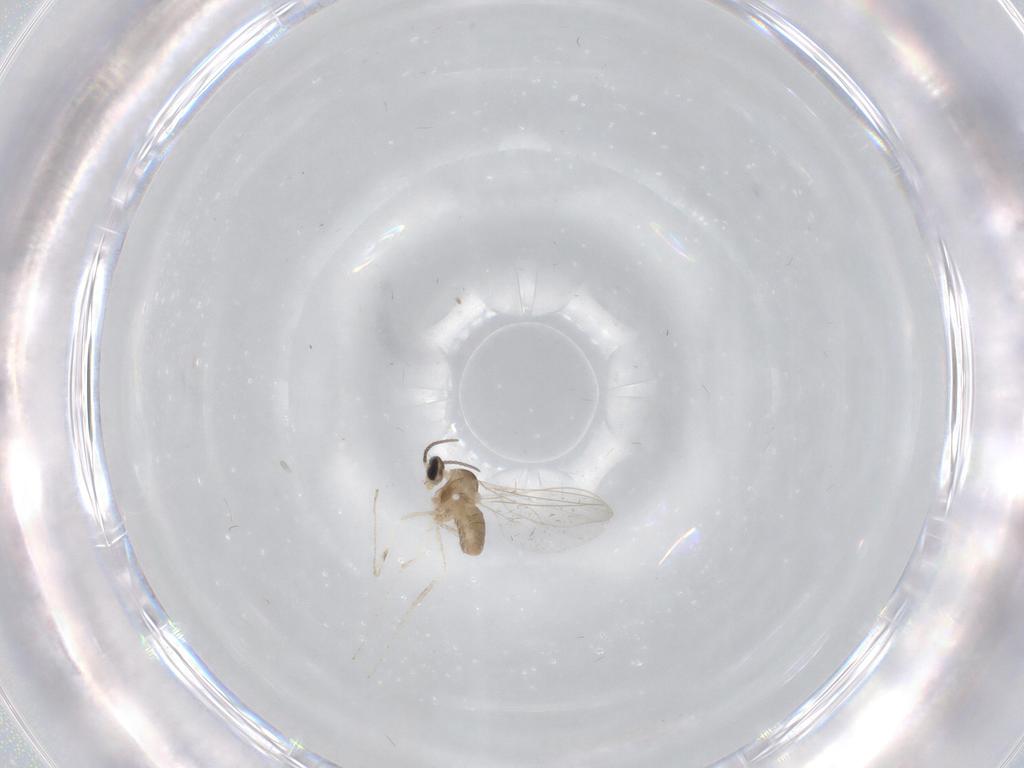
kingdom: Animalia
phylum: Arthropoda
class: Insecta
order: Diptera
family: Cecidomyiidae
